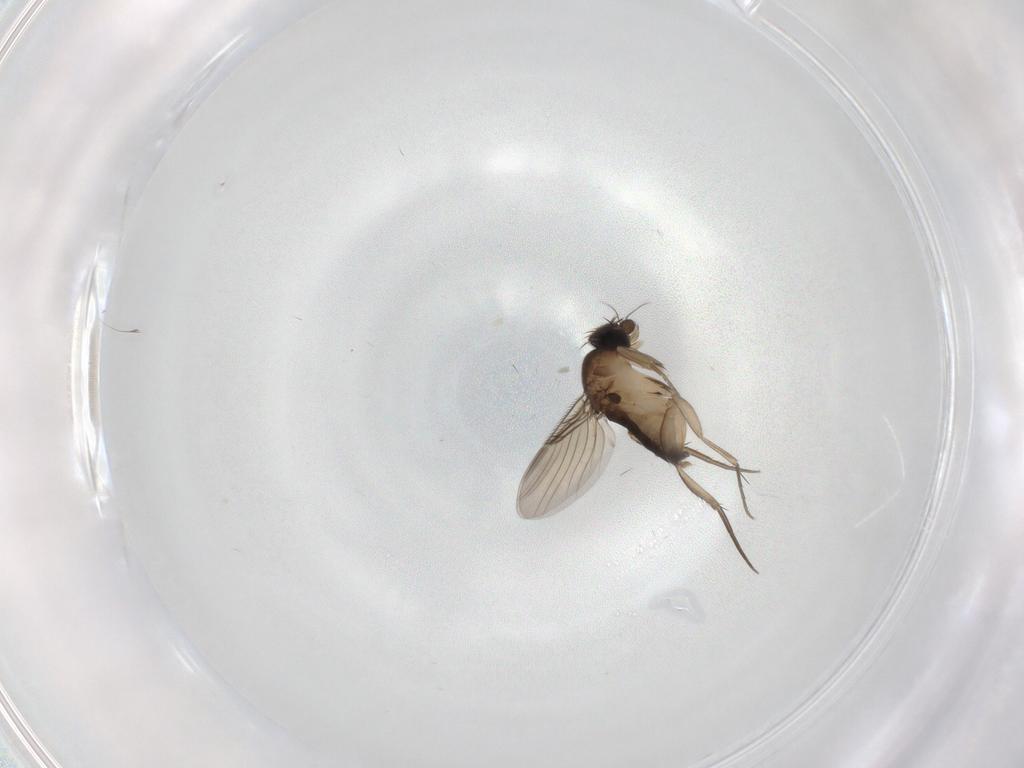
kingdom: Animalia
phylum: Arthropoda
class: Insecta
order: Diptera
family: Phoridae
